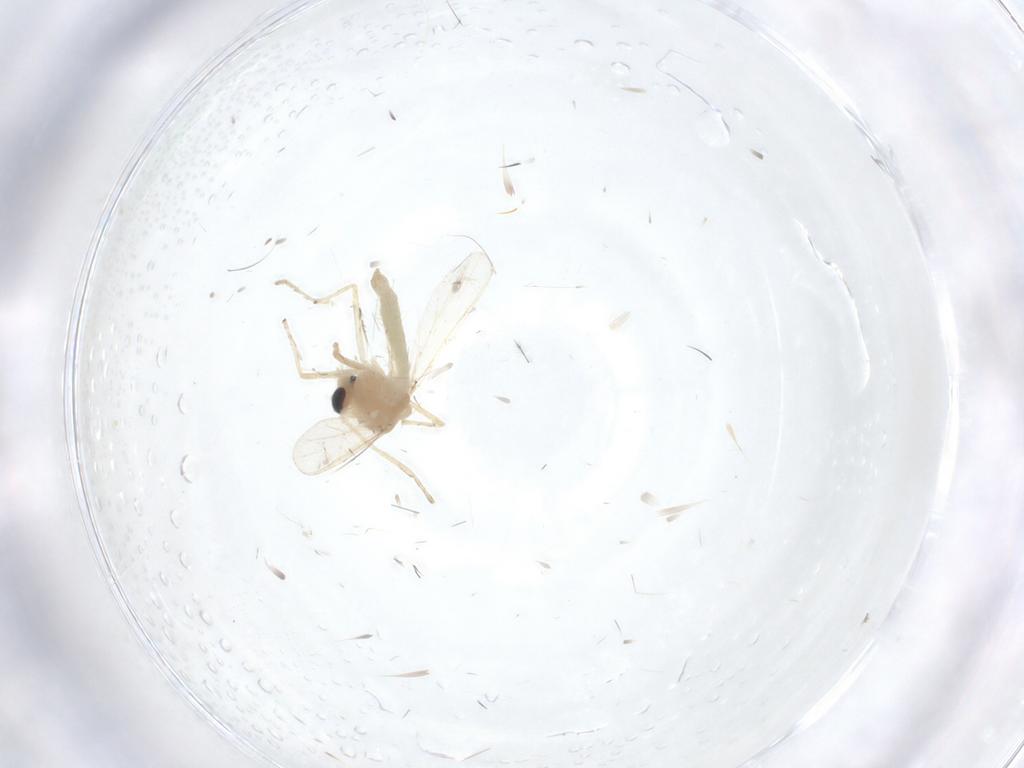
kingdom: Animalia
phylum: Arthropoda
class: Insecta
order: Diptera
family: Chironomidae
